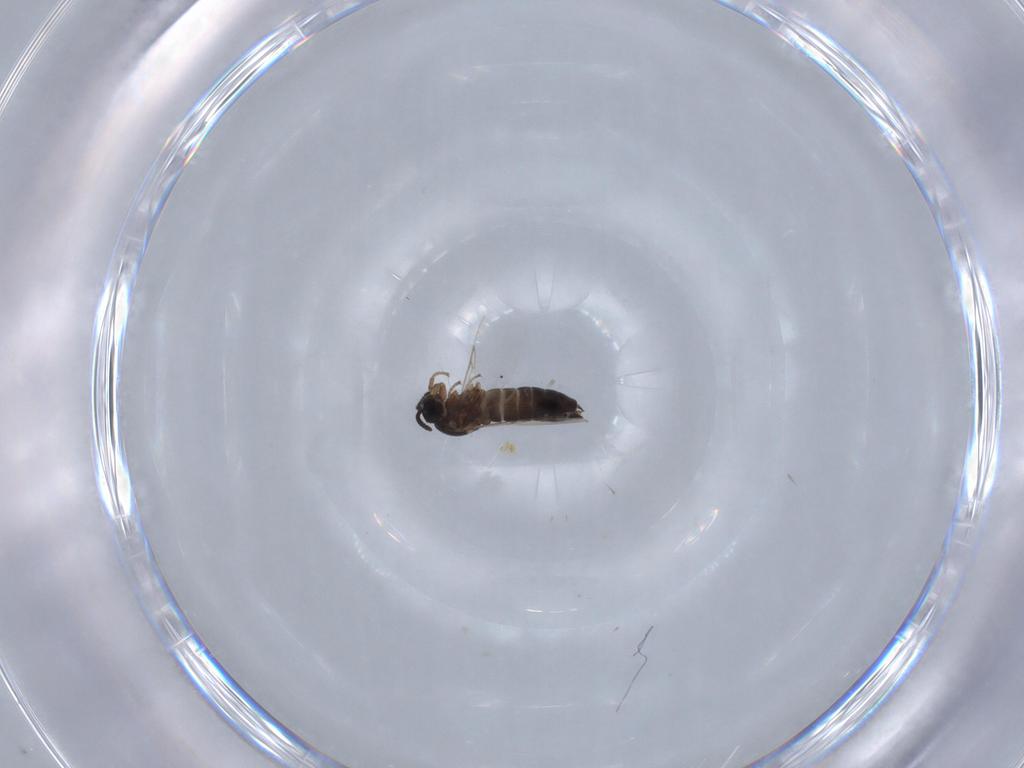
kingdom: Animalia
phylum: Arthropoda
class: Insecta
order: Diptera
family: Scatopsidae
